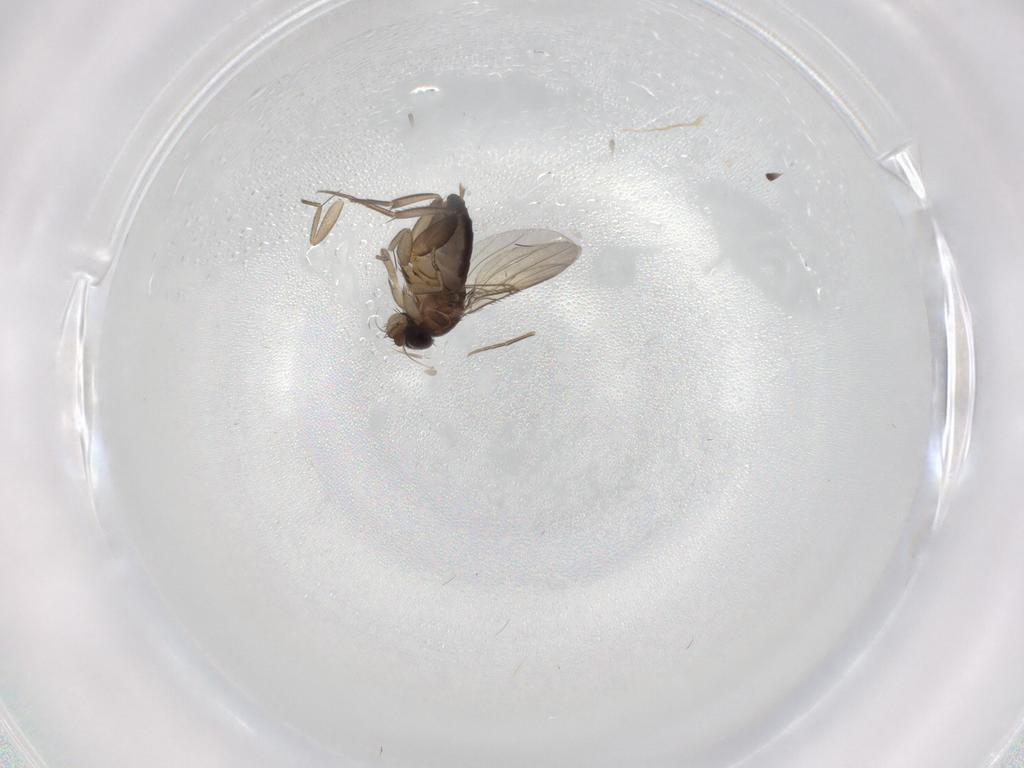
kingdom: Animalia
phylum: Arthropoda
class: Insecta
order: Diptera
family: Phoridae
